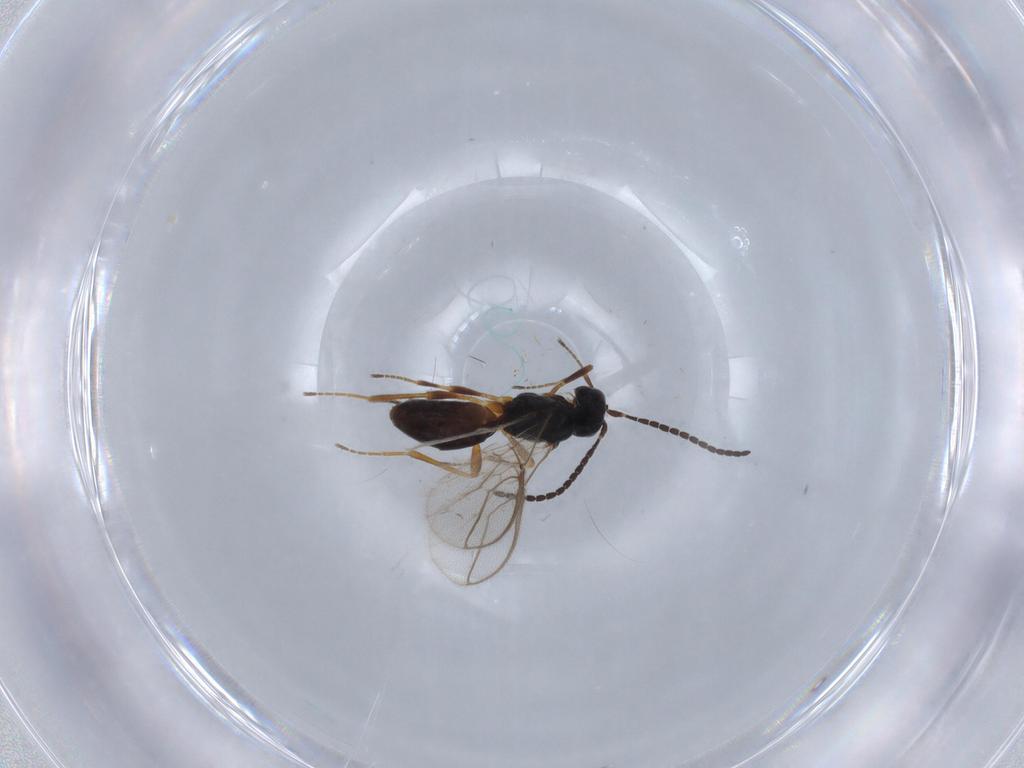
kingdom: Animalia
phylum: Arthropoda
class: Insecta
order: Hymenoptera
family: Braconidae
